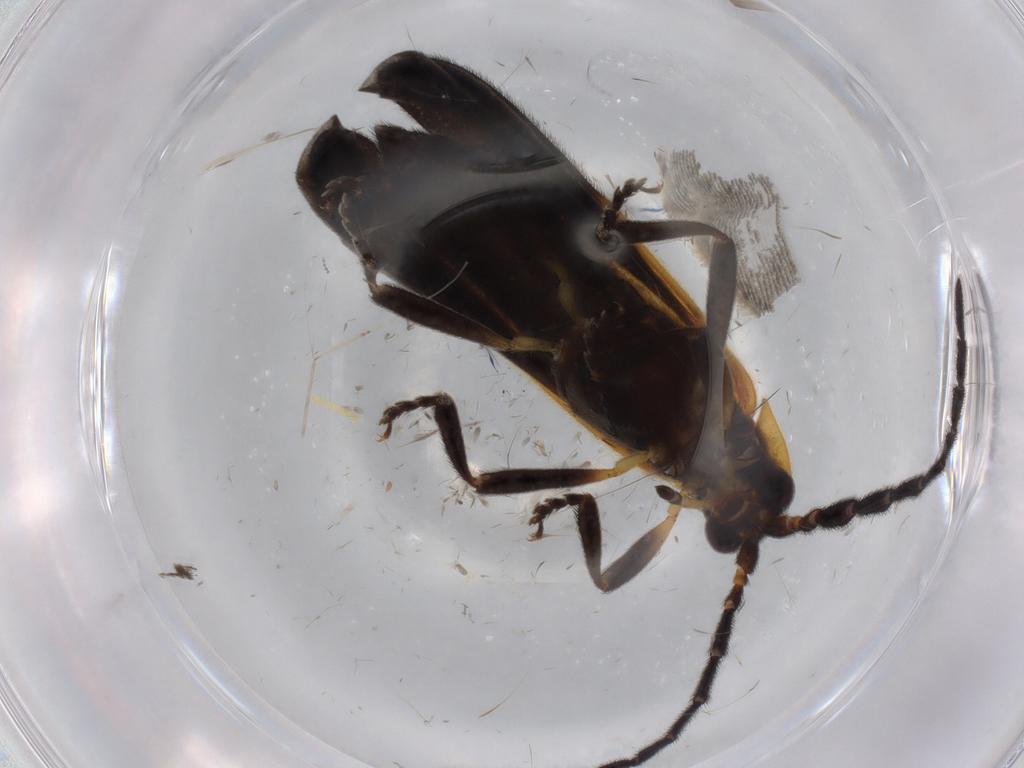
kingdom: Animalia
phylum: Arthropoda
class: Insecta
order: Coleoptera
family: Lycidae
